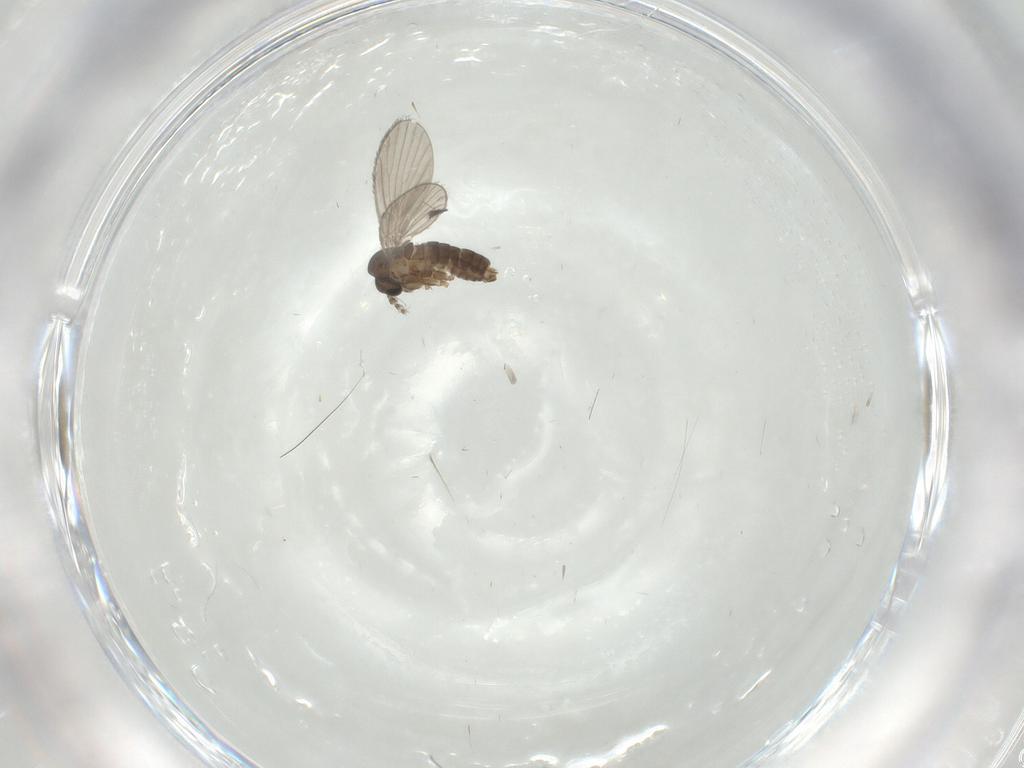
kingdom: Animalia
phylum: Arthropoda
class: Insecta
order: Diptera
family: Cecidomyiidae
